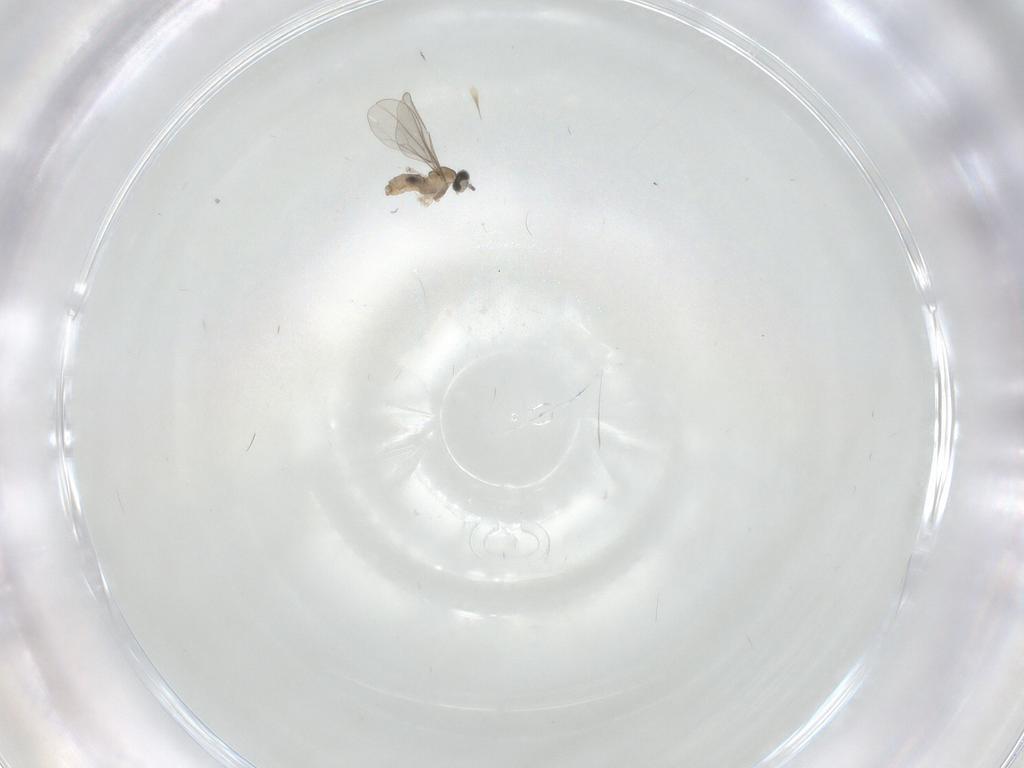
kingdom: Animalia
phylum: Arthropoda
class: Insecta
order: Diptera
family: Cecidomyiidae
